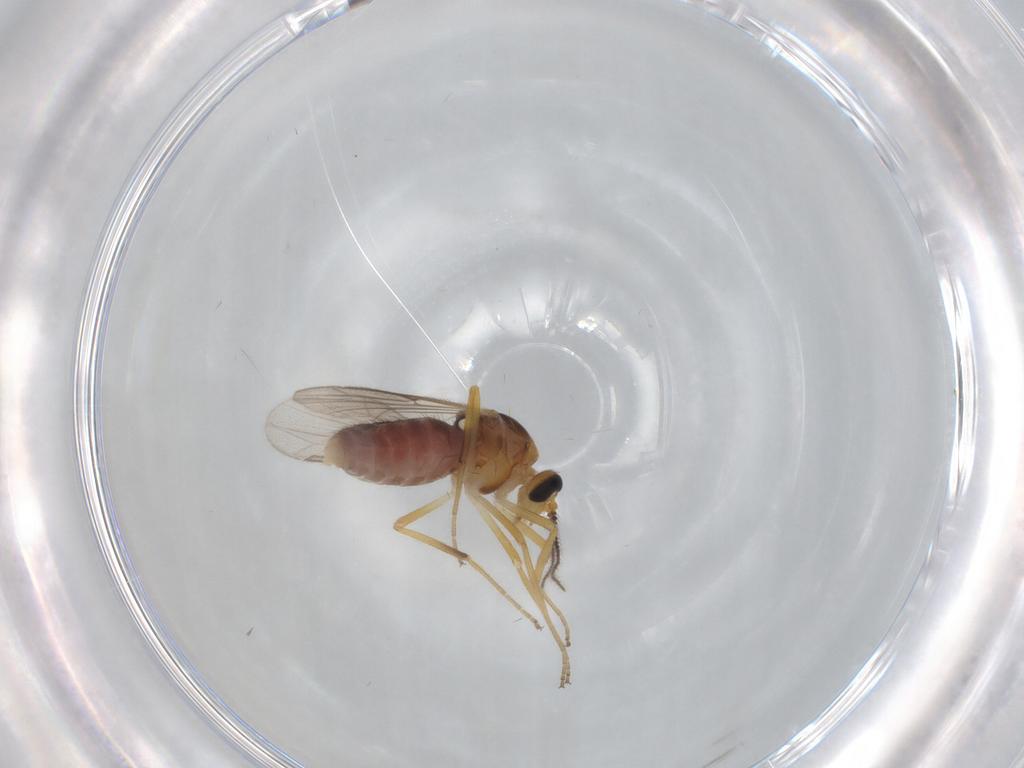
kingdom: Animalia
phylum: Arthropoda
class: Insecta
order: Diptera
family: Ceratopogonidae
